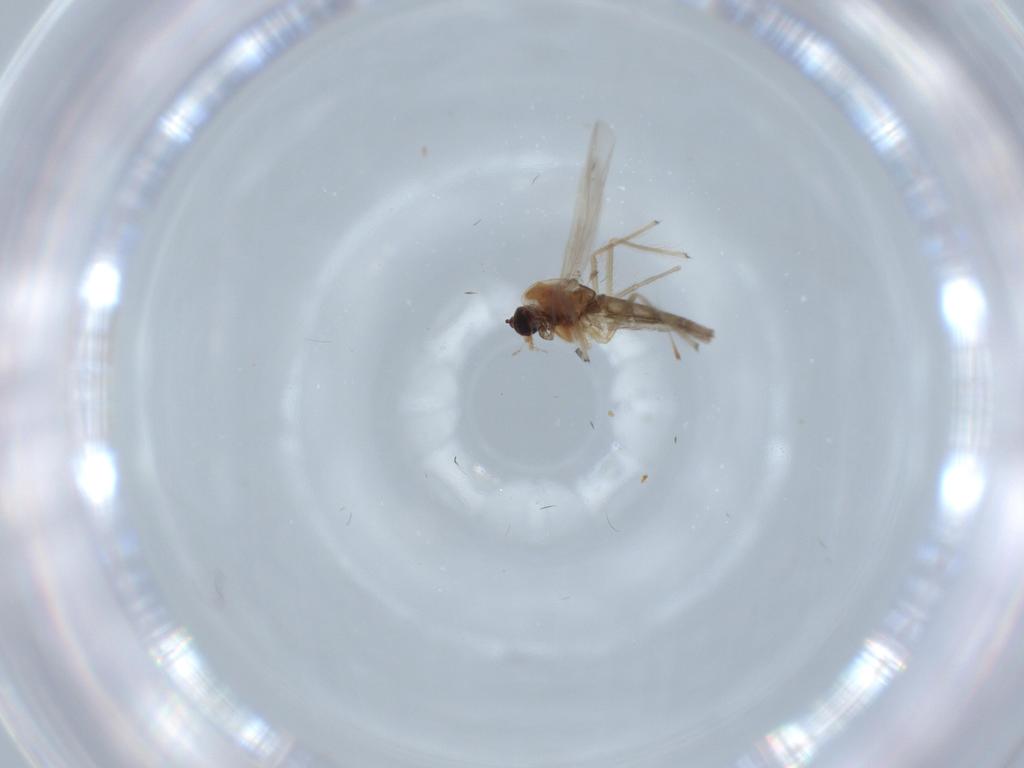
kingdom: Animalia
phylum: Arthropoda
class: Insecta
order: Diptera
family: Chironomidae
